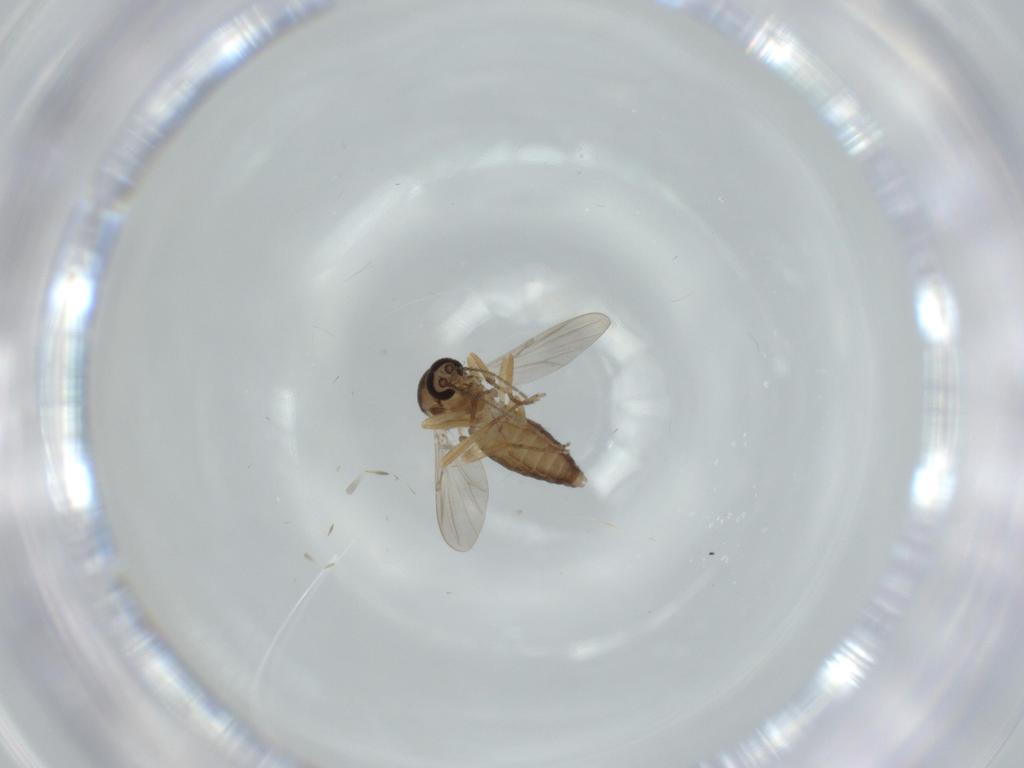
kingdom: Animalia
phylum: Arthropoda
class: Insecta
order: Diptera
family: Ceratopogonidae
